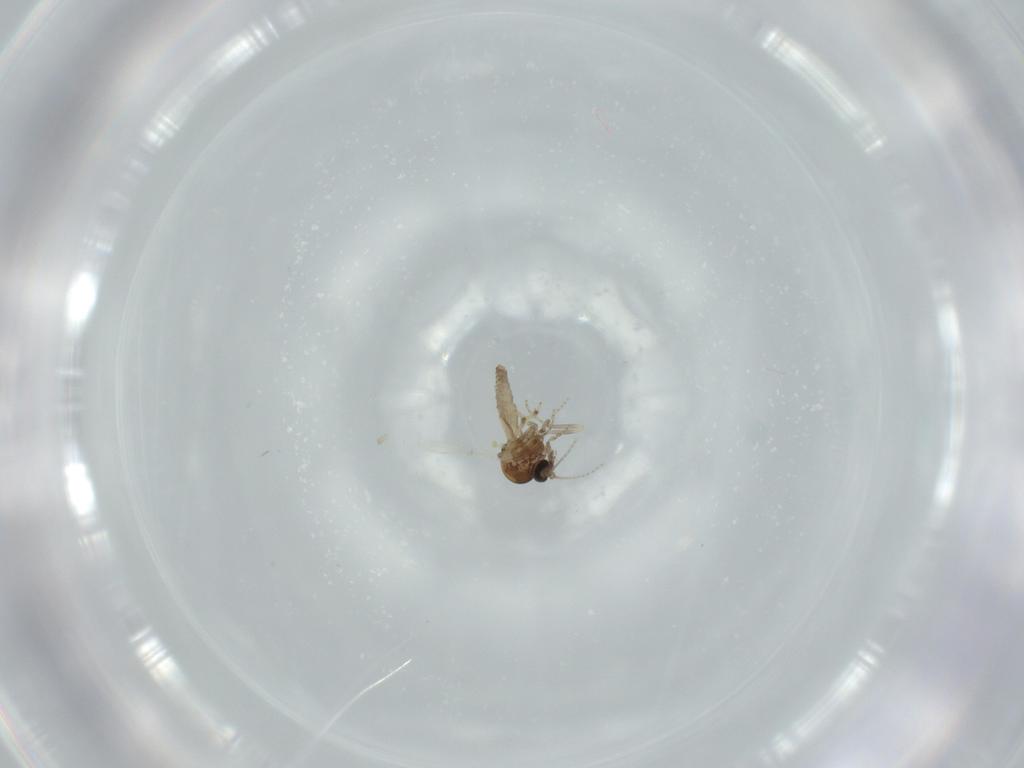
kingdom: Animalia
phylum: Arthropoda
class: Insecta
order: Diptera
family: Ceratopogonidae
